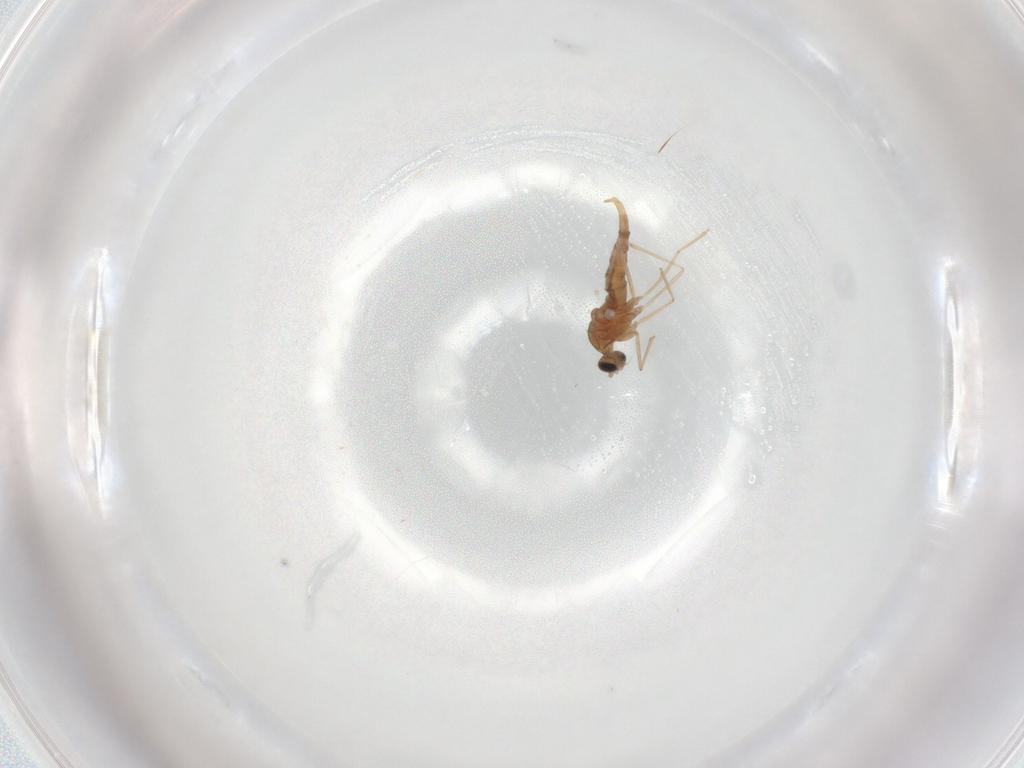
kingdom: Animalia
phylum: Arthropoda
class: Insecta
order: Diptera
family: Cecidomyiidae
